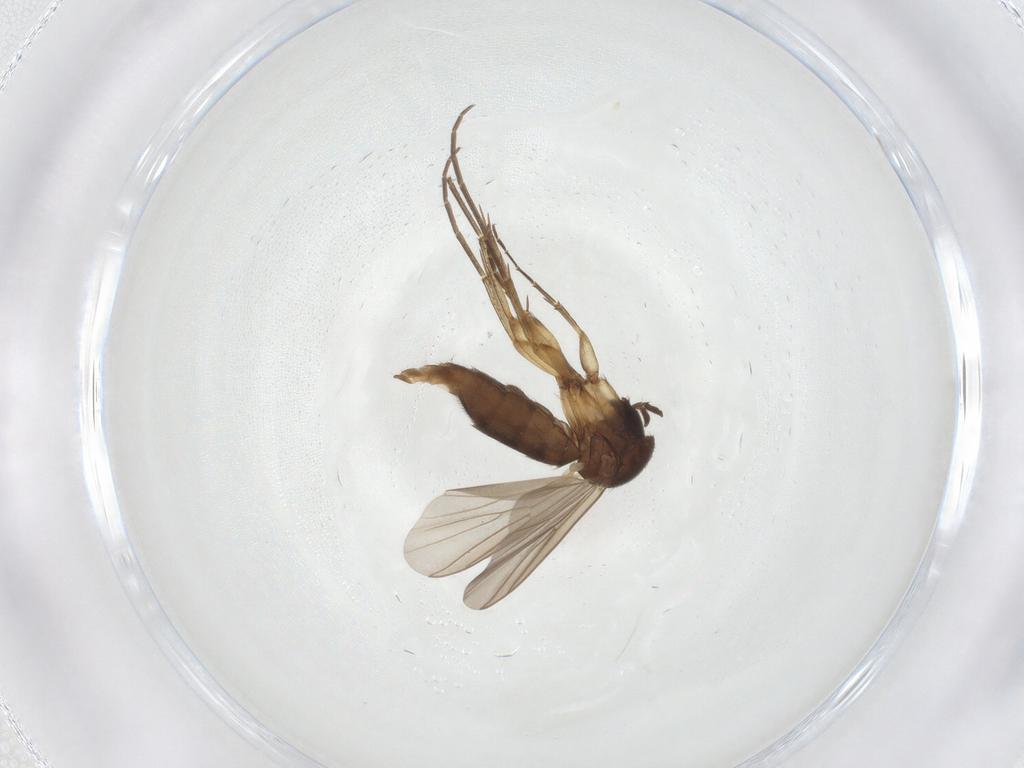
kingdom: Animalia
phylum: Arthropoda
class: Insecta
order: Diptera
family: Mycetophilidae
